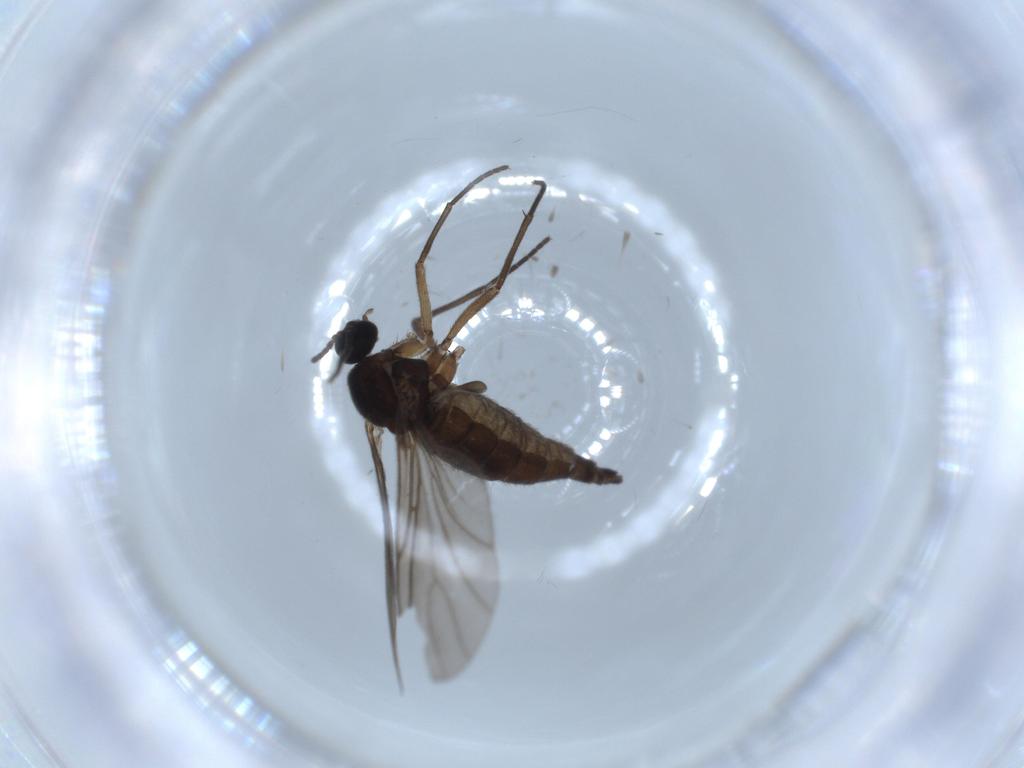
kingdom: Animalia
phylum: Arthropoda
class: Insecta
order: Diptera
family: Sciaridae
